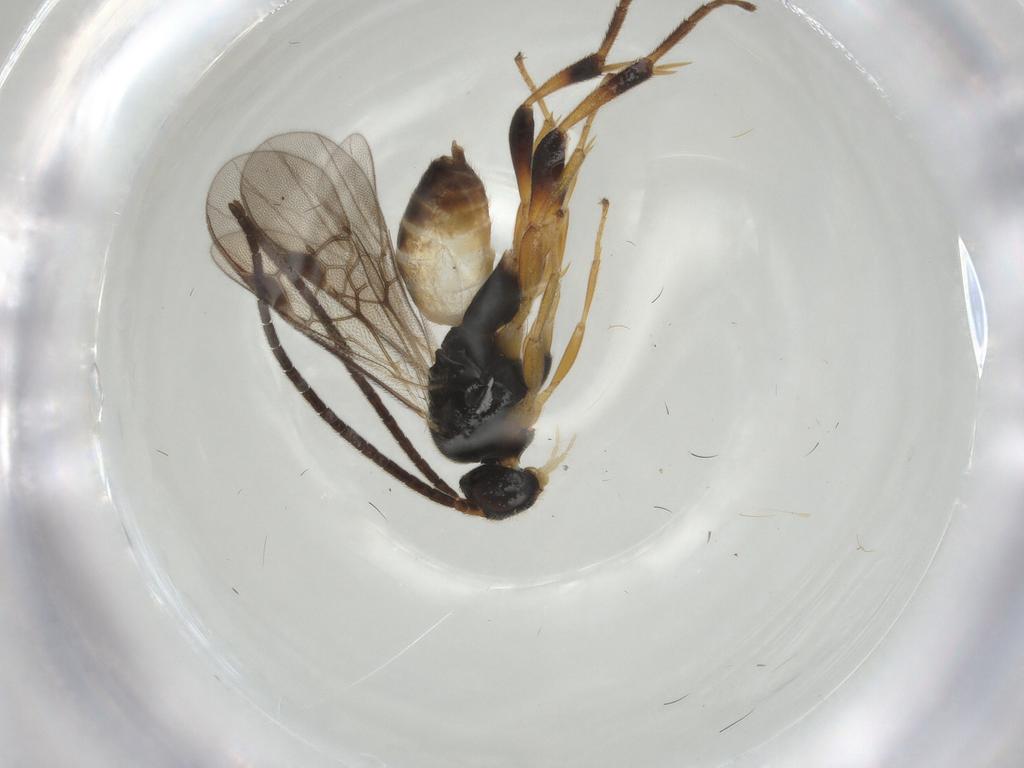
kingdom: Animalia
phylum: Arthropoda
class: Insecta
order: Hymenoptera
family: Braconidae
